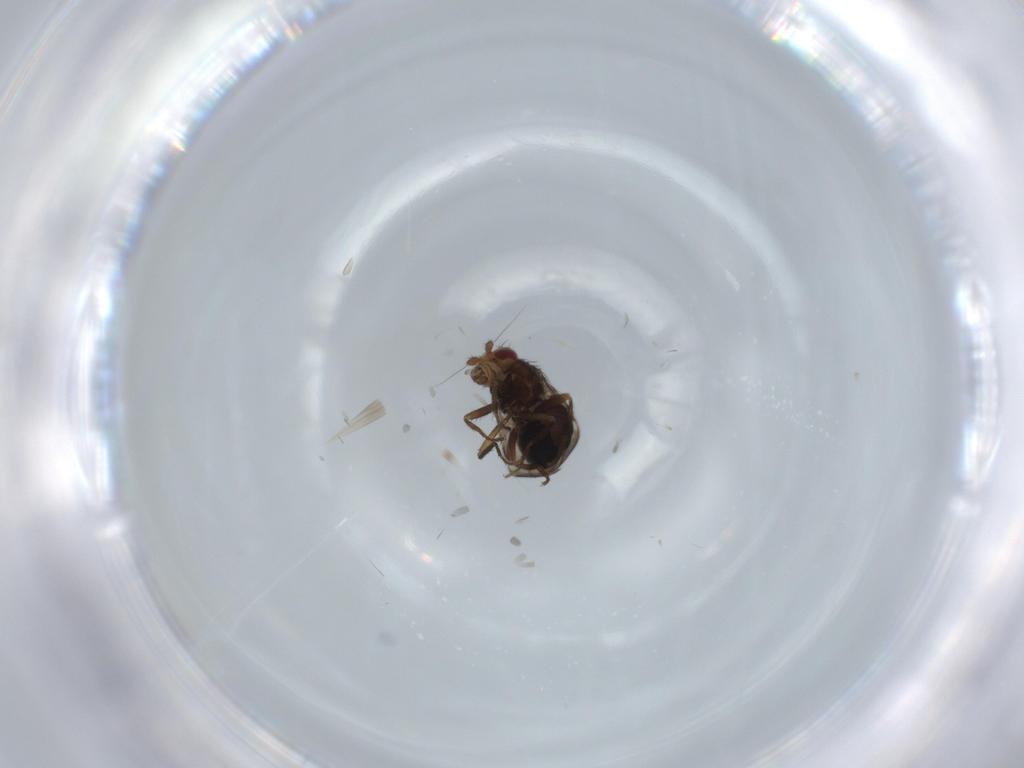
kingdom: Animalia
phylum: Arthropoda
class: Insecta
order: Diptera
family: Sphaeroceridae
